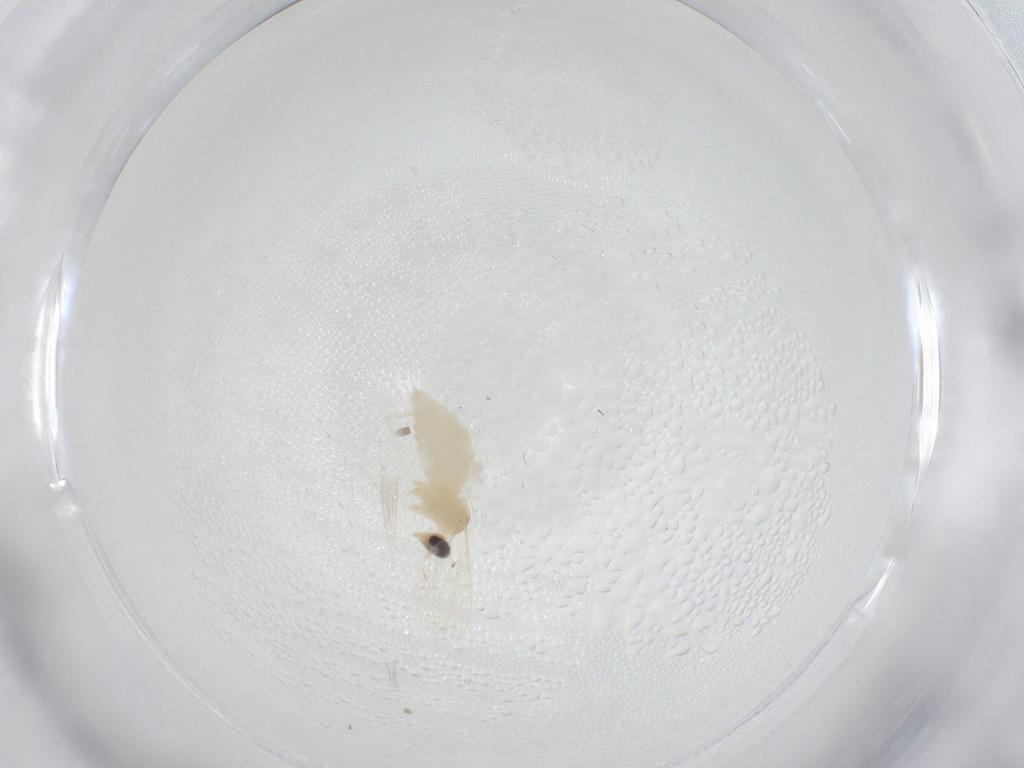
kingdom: Animalia
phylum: Arthropoda
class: Insecta
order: Diptera
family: Cecidomyiidae
